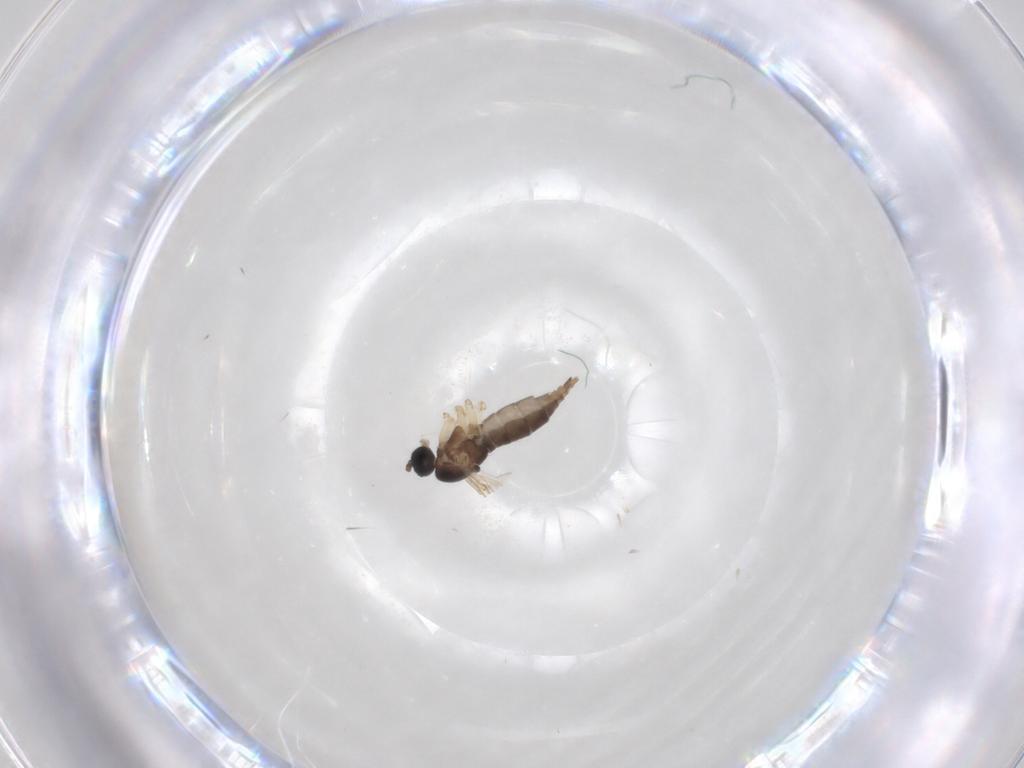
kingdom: Animalia
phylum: Arthropoda
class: Insecta
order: Diptera
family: Sciaridae
